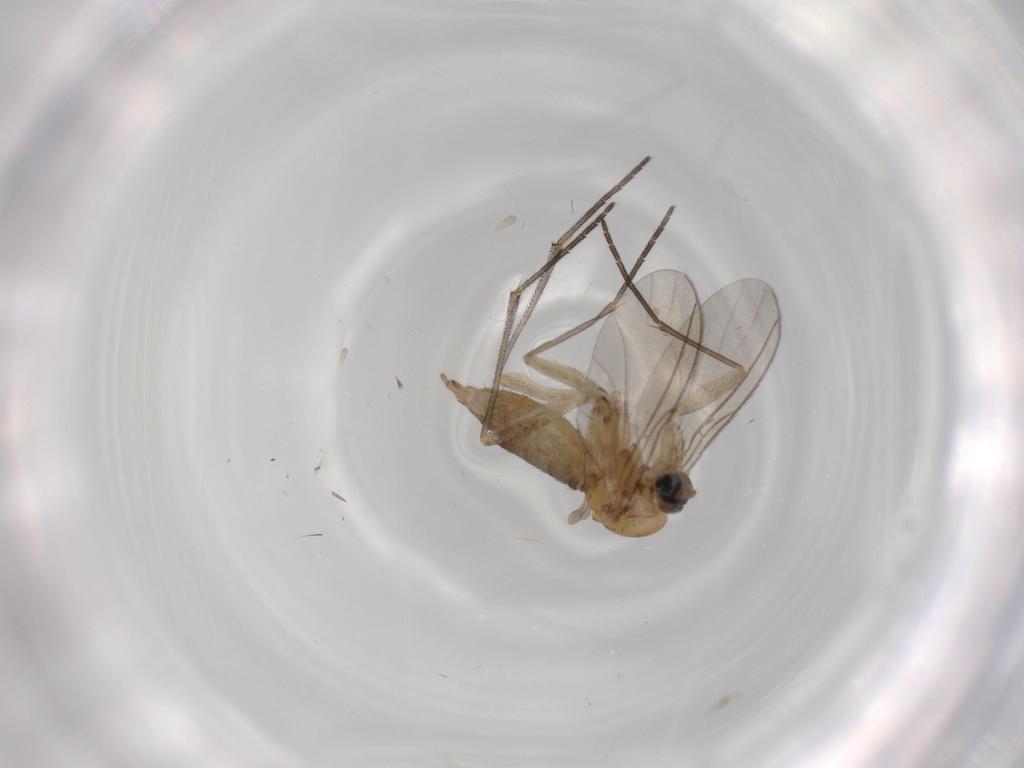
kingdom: Animalia
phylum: Arthropoda
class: Insecta
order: Diptera
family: Sciaridae
